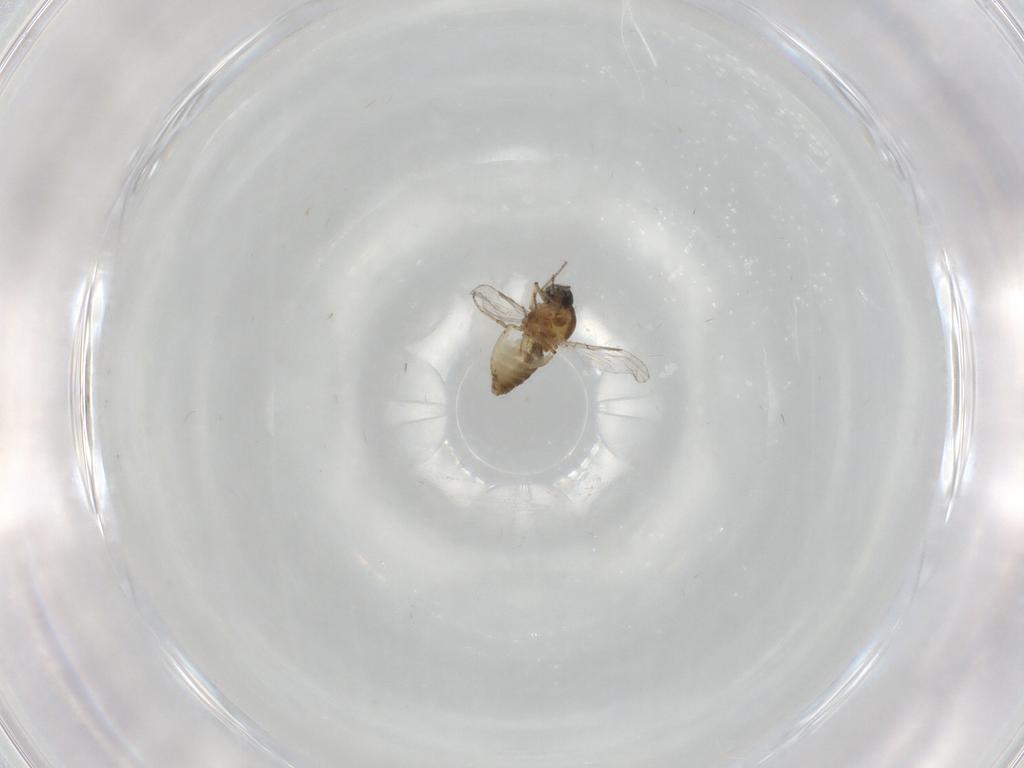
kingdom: Animalia
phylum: Arthropoda
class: Insecta
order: Diptera
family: Ceratopogonidae
